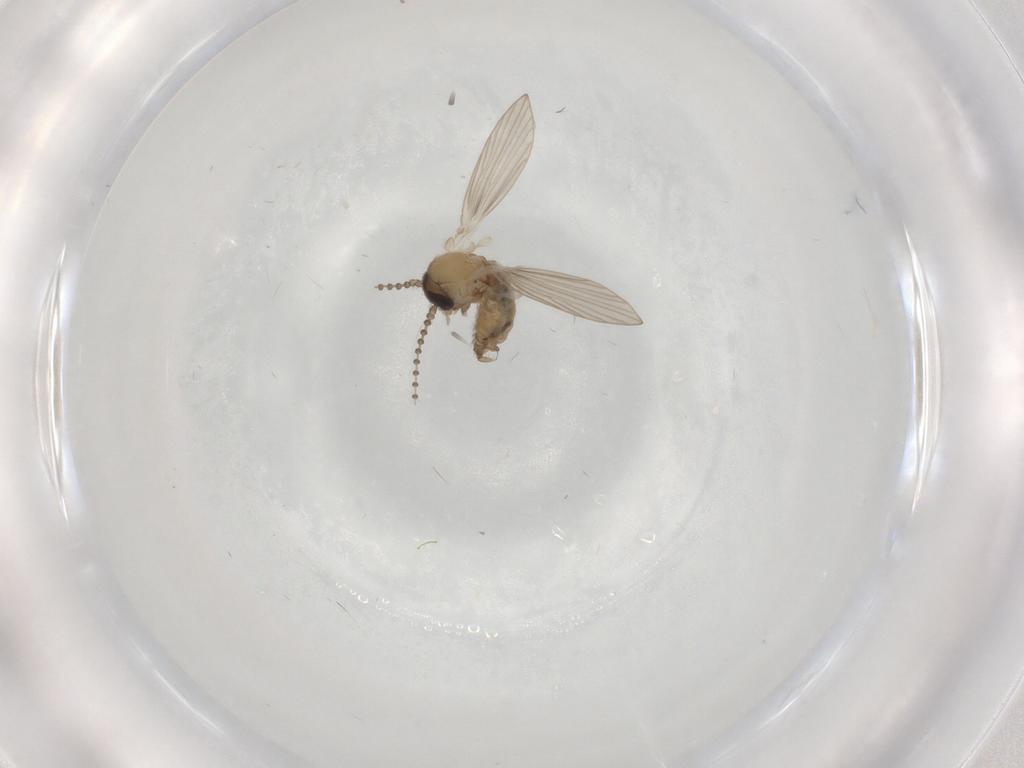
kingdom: Animalia
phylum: Arthropoda
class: Insecta
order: Diptera
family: Psychodidae
